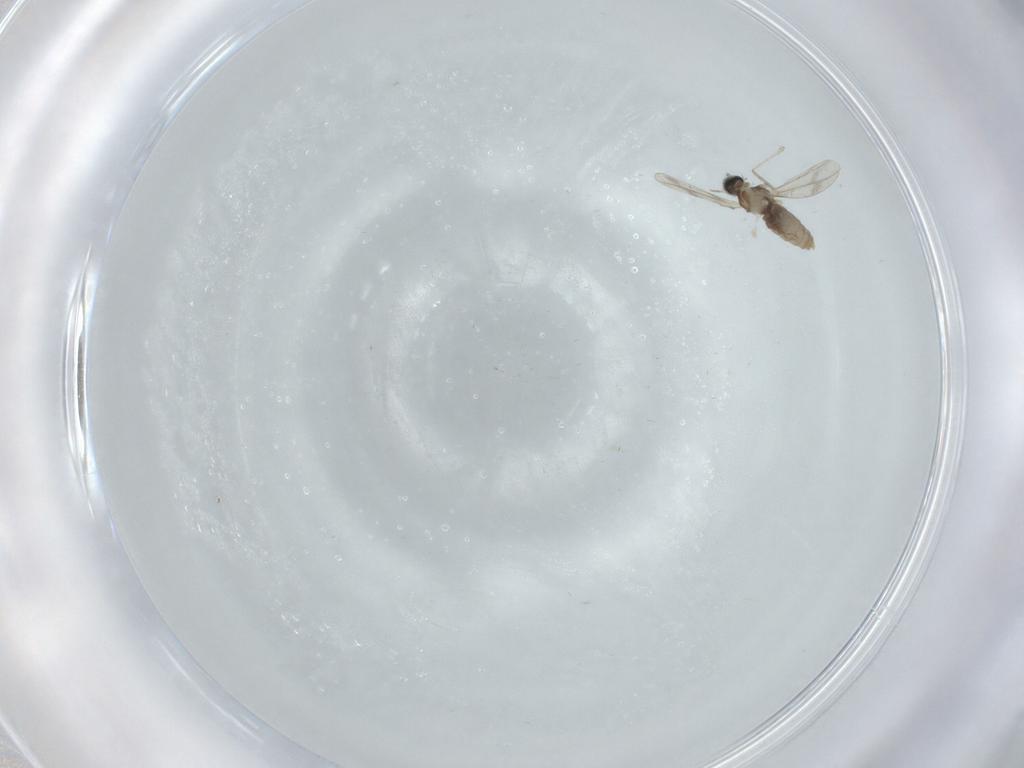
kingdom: Animalia
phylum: Arthropoda
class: Insecta
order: Diptera
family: Cecidomyiidae
